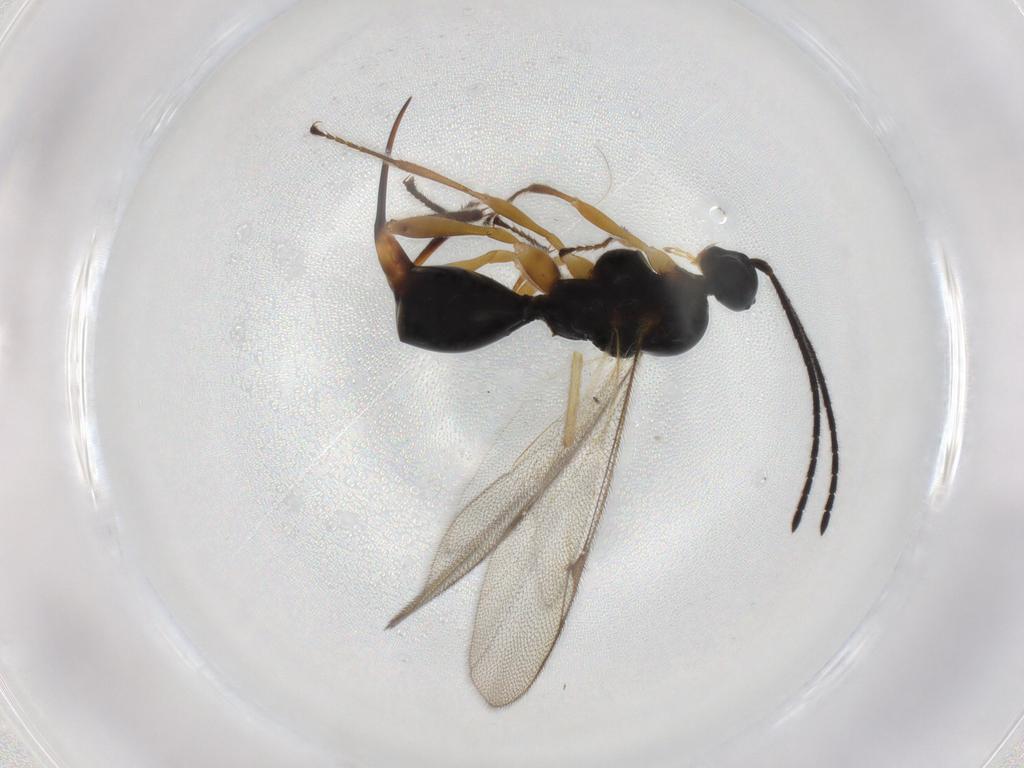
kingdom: Animalia
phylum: Arthropoda
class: Insecta
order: Hymenoptera
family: Proctotrupidae
